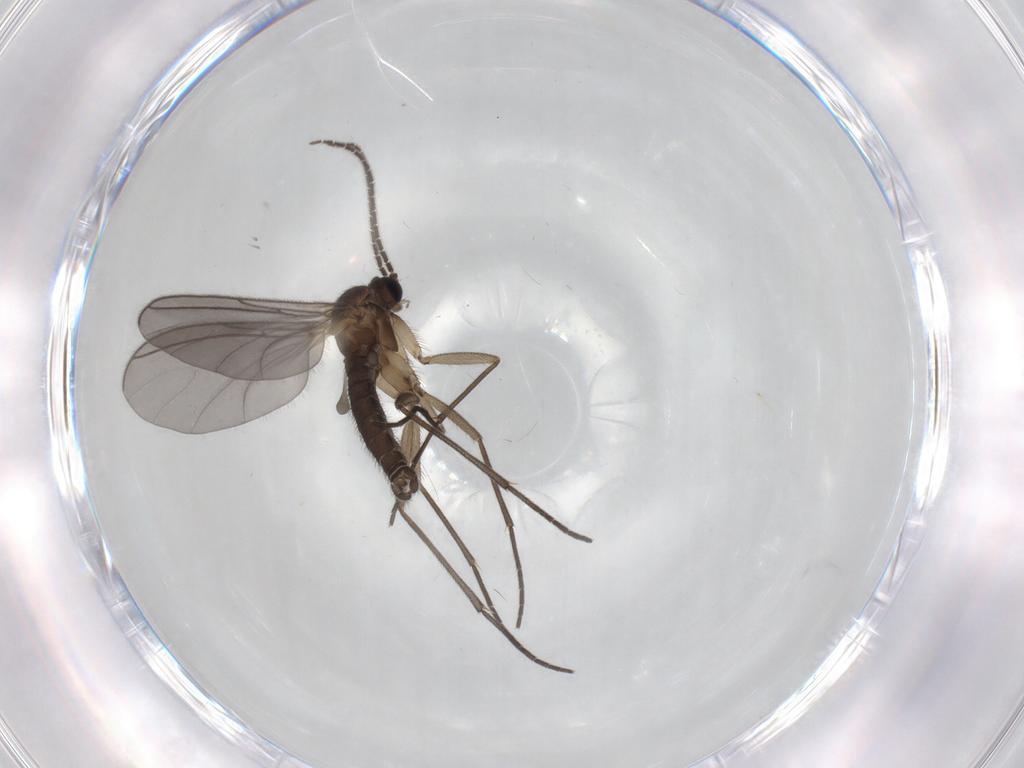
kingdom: Animalia
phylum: Arthropoda
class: Insecta
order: Diptera
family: Sciaridae
